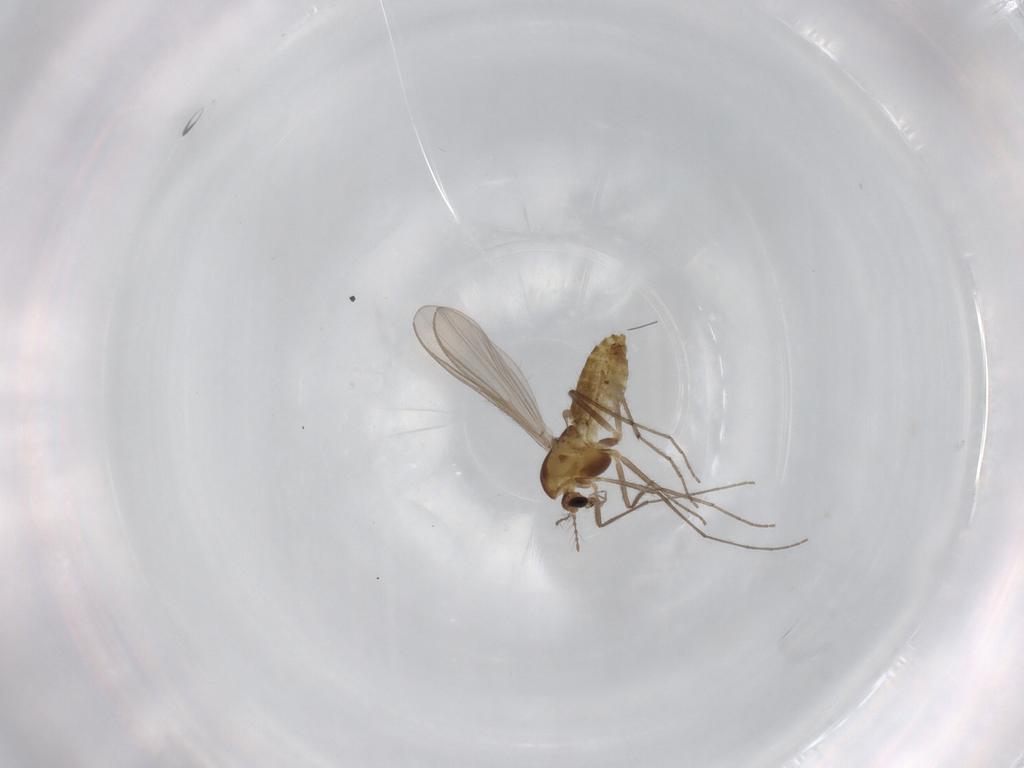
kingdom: Animalia
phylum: Arthropoda
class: Insecta
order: Diptera
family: Chironomidae
